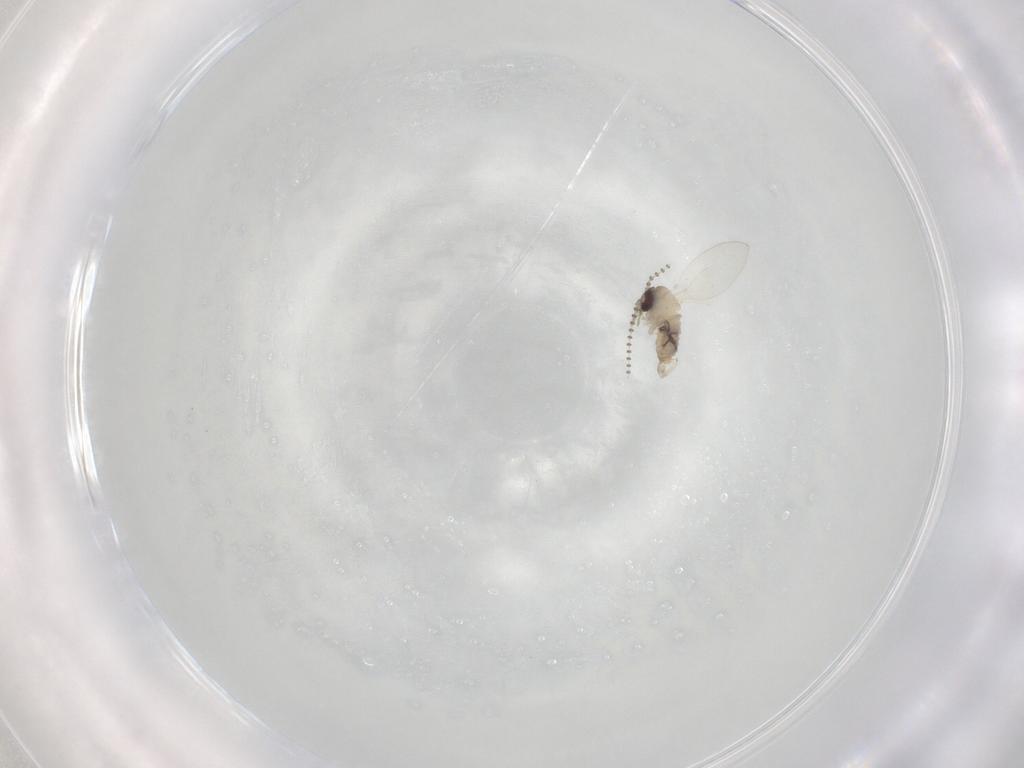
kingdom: Animalia
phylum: Arthropoda
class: Insecta
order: Diptera
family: Psychodidae
